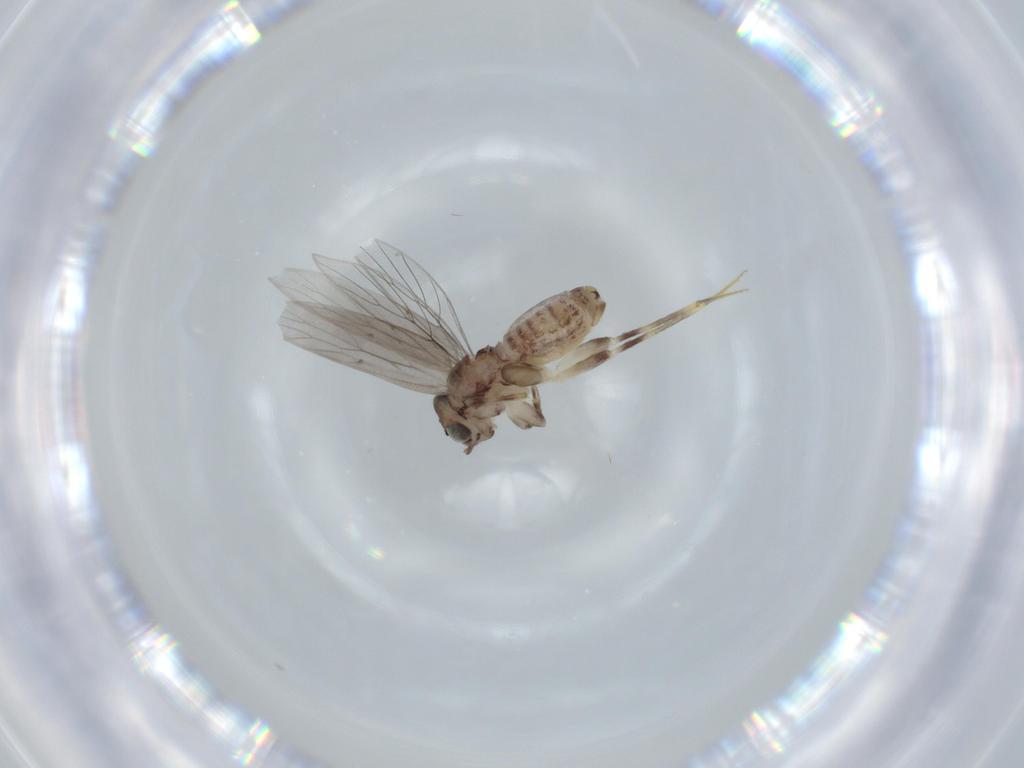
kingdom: Animalia
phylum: Arthropoda
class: Insecta
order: Psocodea
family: Lepidopsocidae
